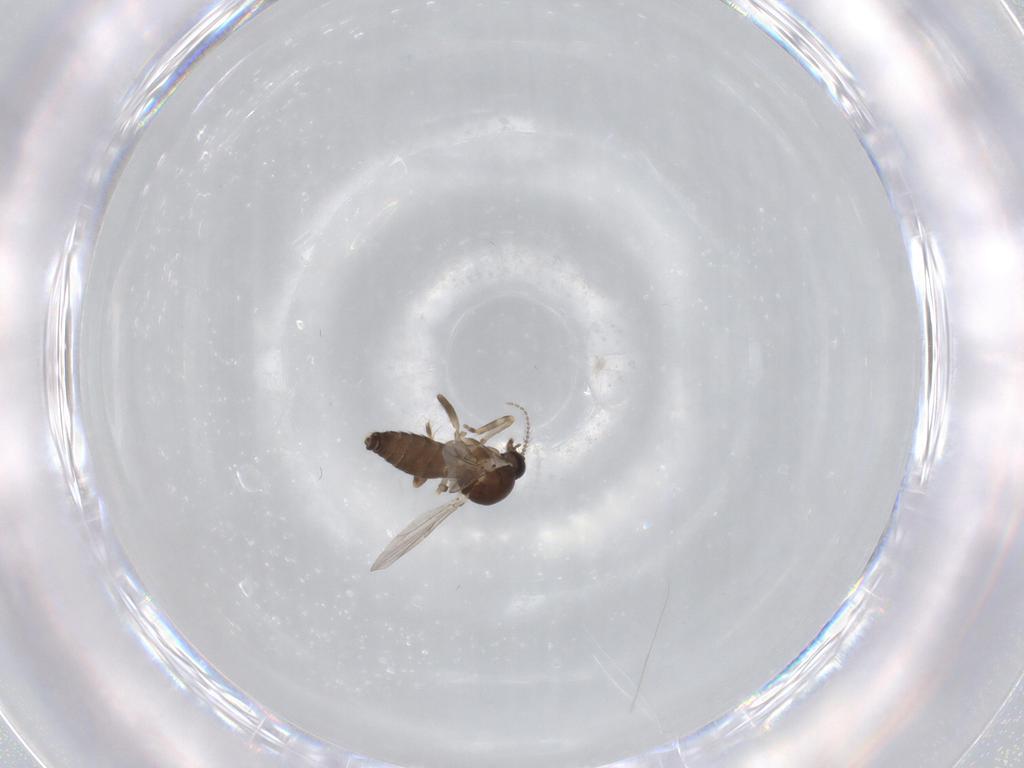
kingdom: Animalia
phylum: Arthropoda
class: Insecta
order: Diptera
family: Ceratopogonidae
